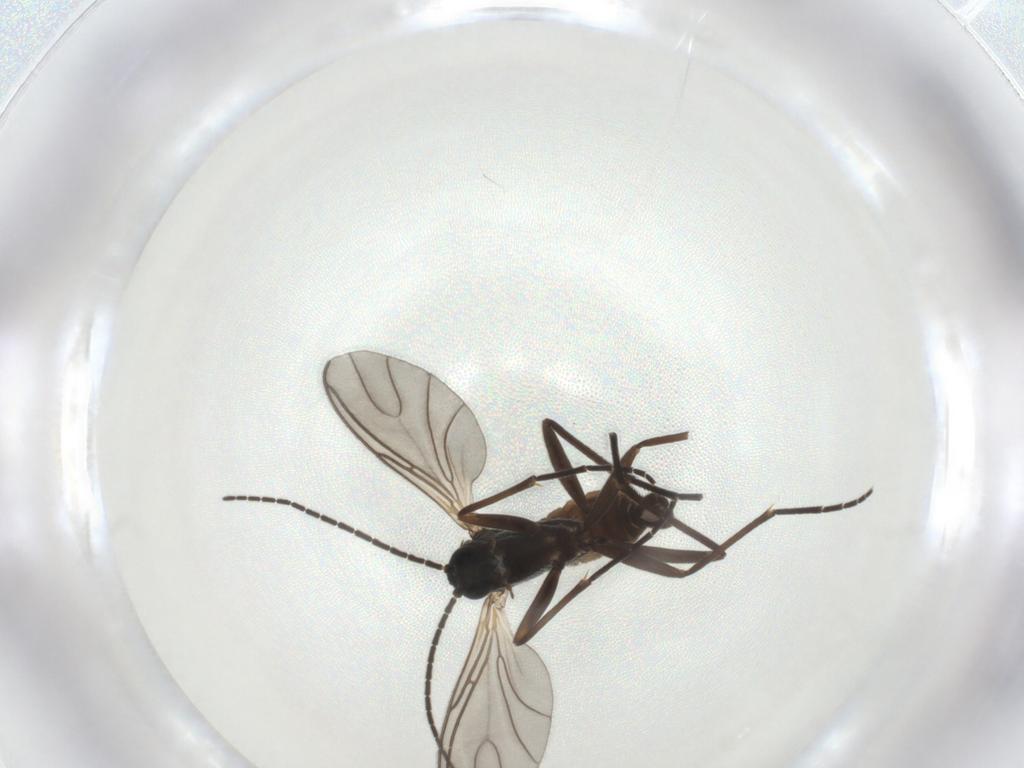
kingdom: Animalia
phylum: Arthropoda
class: Insecta
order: Diptera
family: Sciaridae
